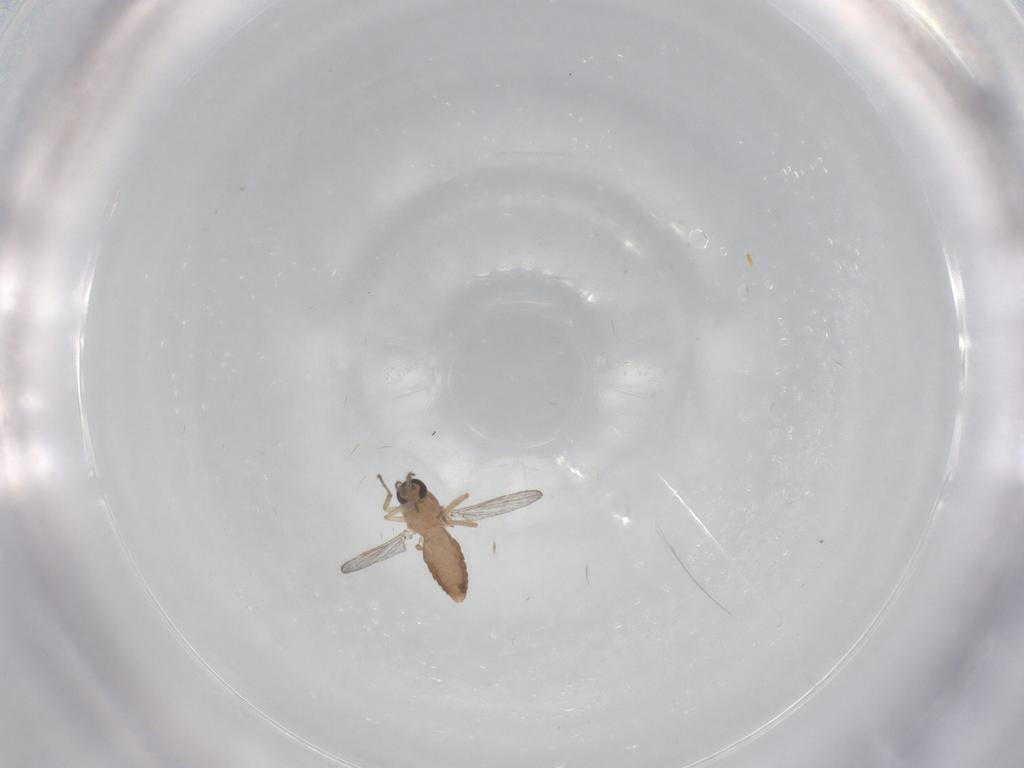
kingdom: Animalia
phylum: Arthropoda
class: Insecta
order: Diptera
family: Ceratopogonidae
